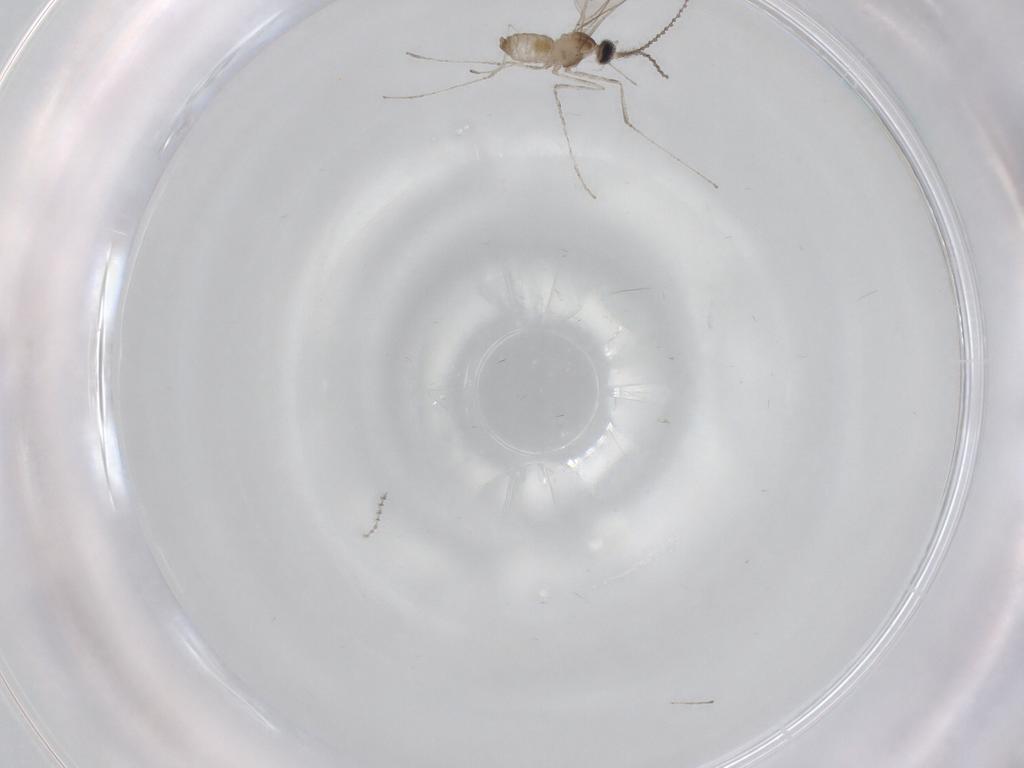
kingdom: Animalia
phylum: Arthropoda
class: Insecta
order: Diptera
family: Cecidomyiidae
